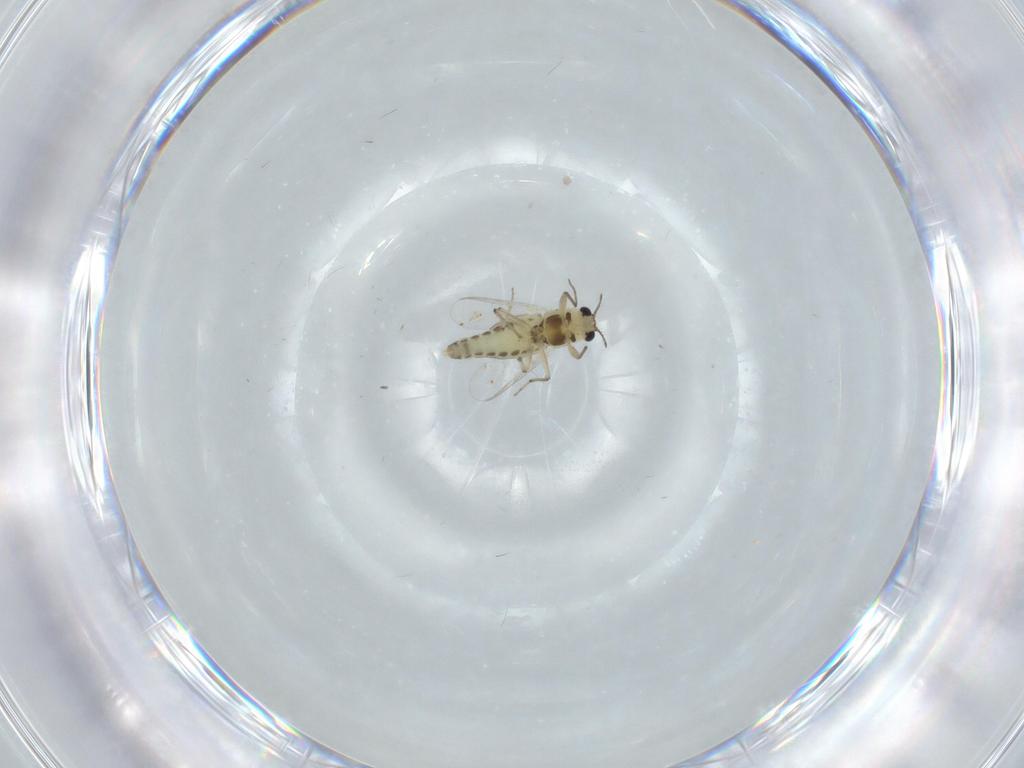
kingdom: Animalia
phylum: Arthropoda
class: Insecta
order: Diptera
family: Chironomidae
